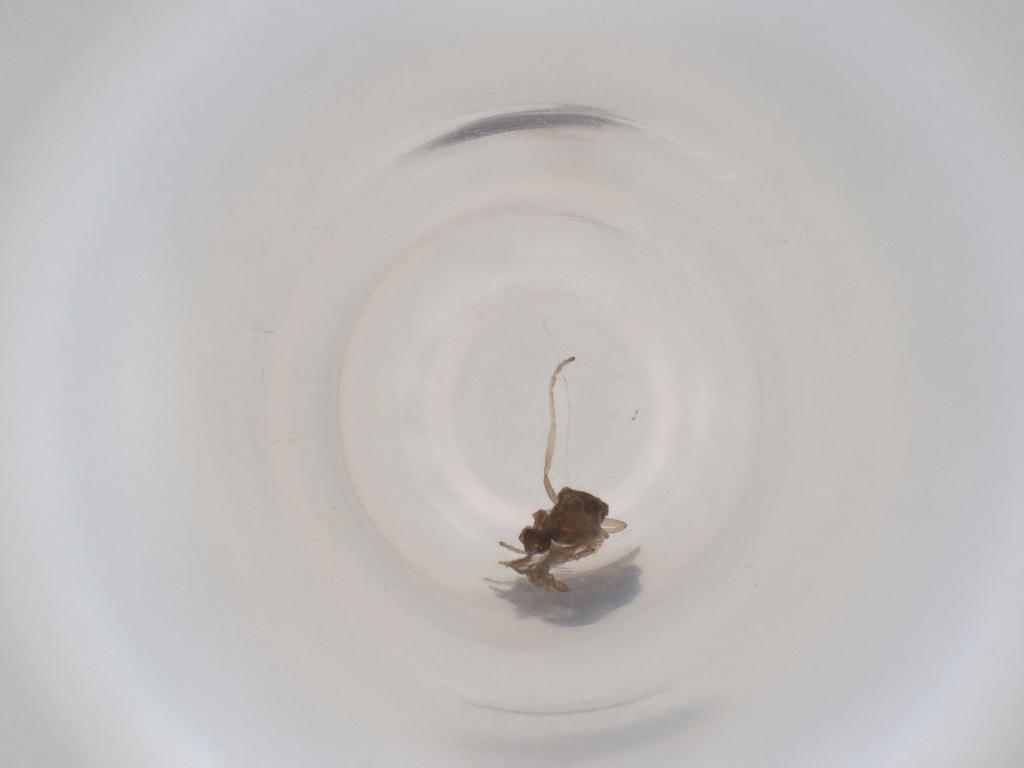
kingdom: Animalia
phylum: Arthropoda
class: Insecta
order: Diptera
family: Cecidomyiidae
